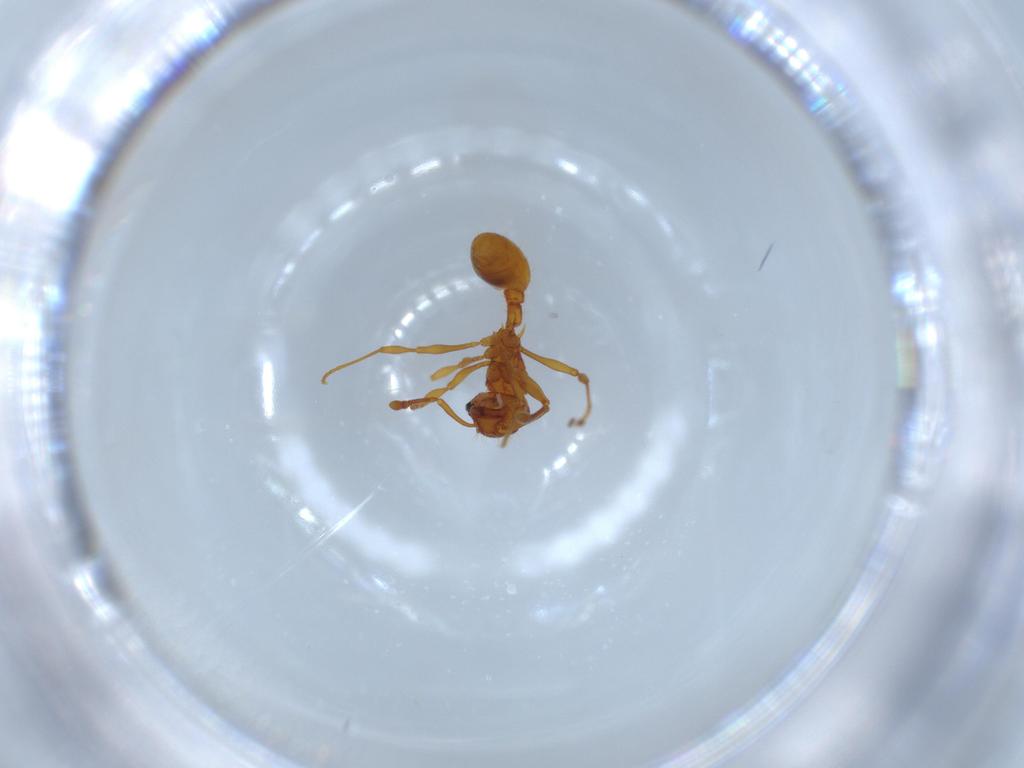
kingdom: Animalia
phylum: Arthropoda
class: Insecta
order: Hymenoptera
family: Formicidae
